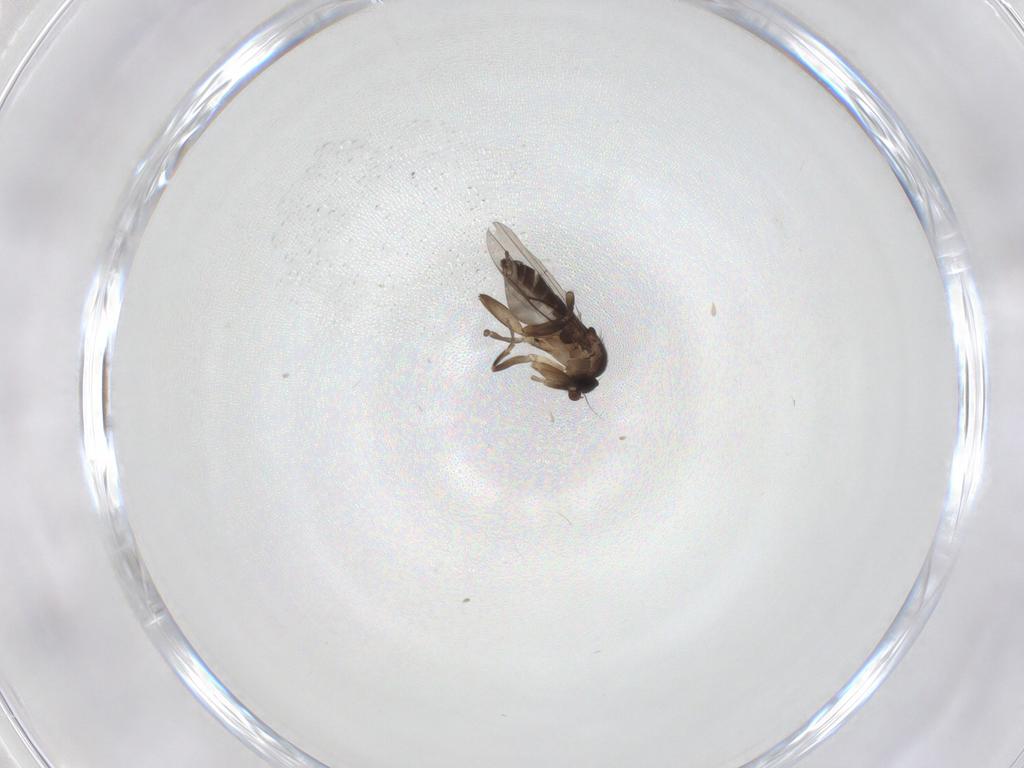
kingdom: Animalia
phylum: Arthropoda
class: Insecta
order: Diptera
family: Phoridae
